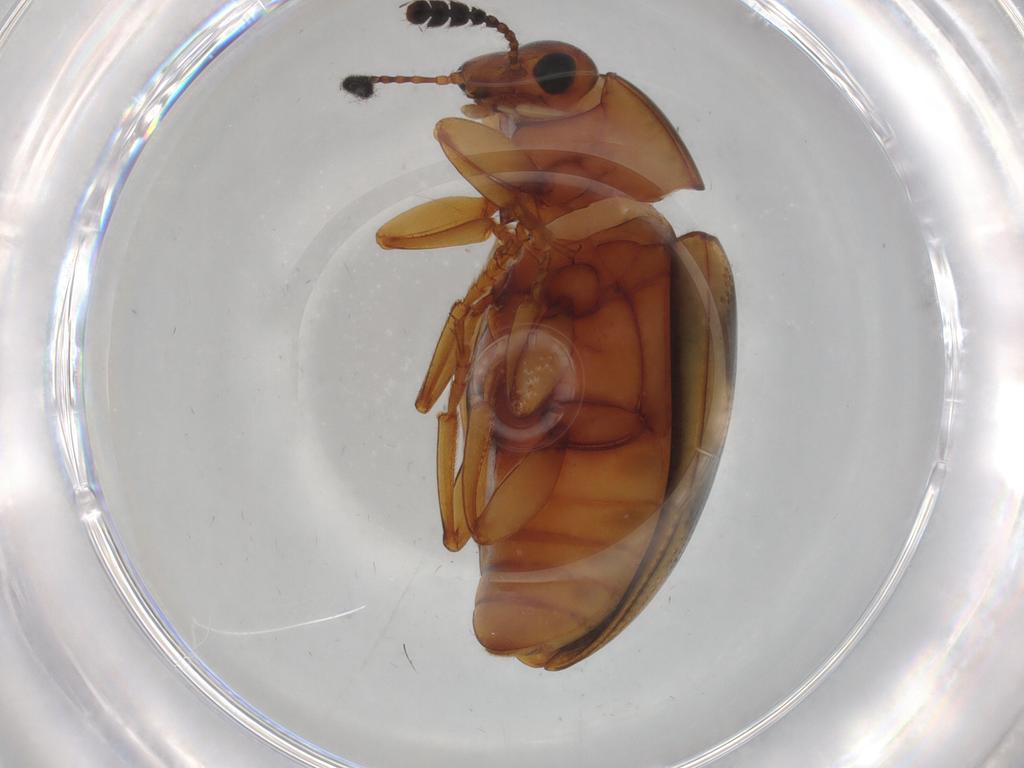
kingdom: Animalia
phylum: Arthropoda
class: Insecta
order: Coleoptera
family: Erotylidae
